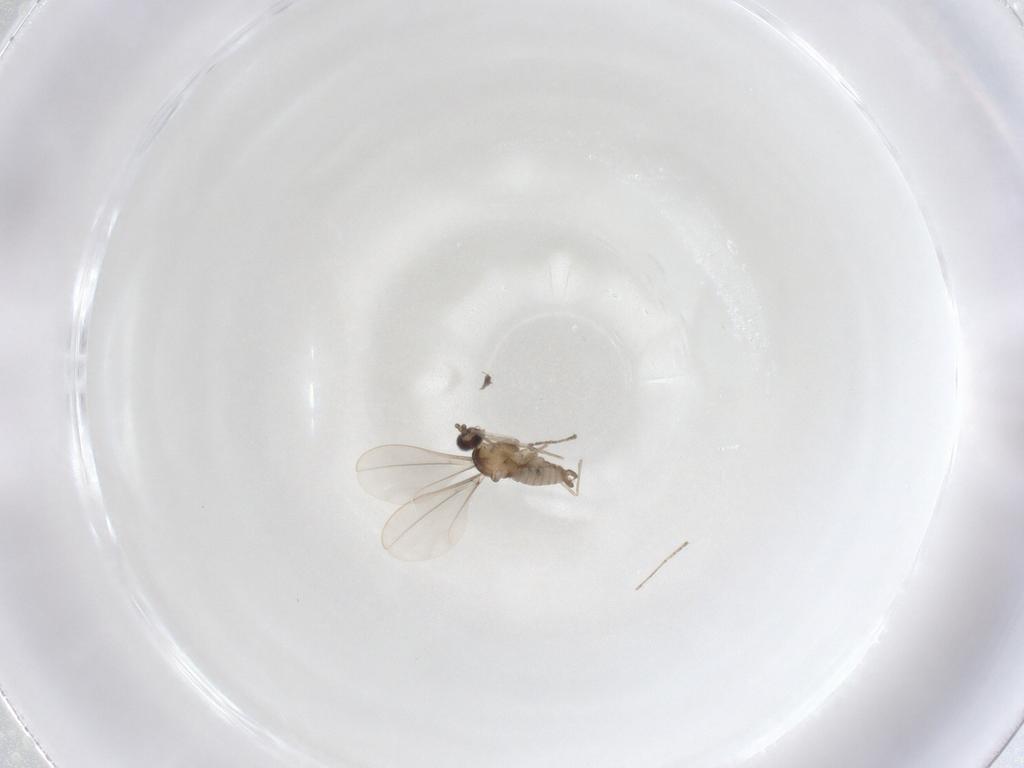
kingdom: Animalia
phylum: Arthropoda
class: Insecta
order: Diptera
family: Cecidomyiidae
